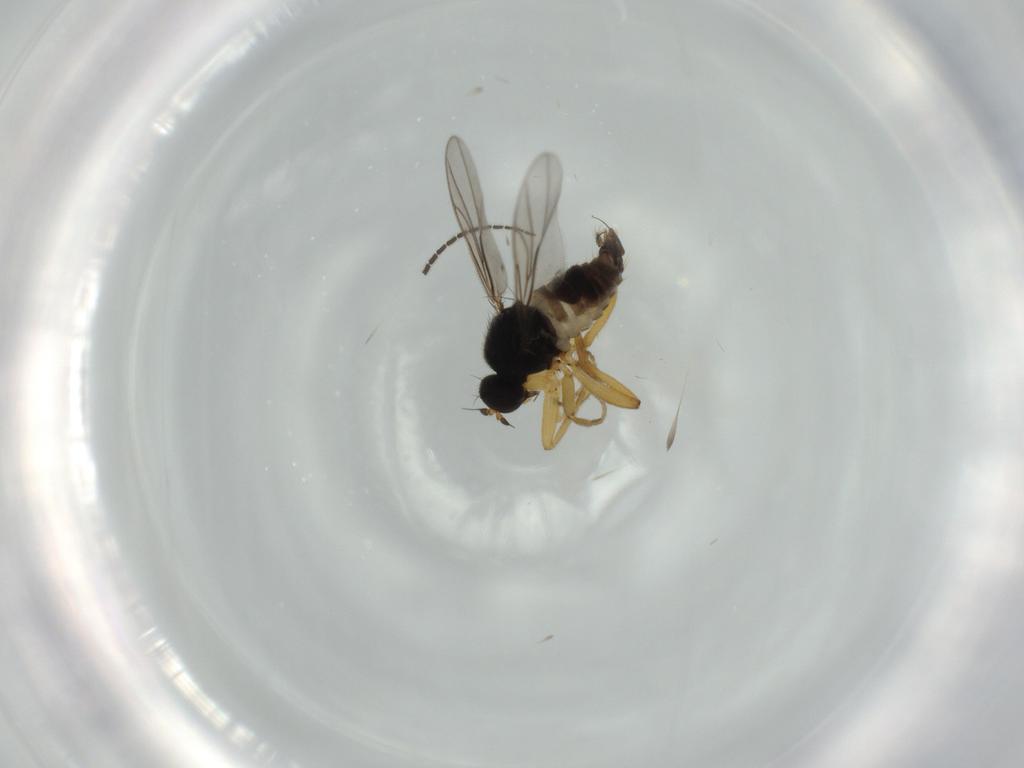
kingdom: Animalia
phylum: Arthropoda
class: Insecta
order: Diptera
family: Hybotidae
